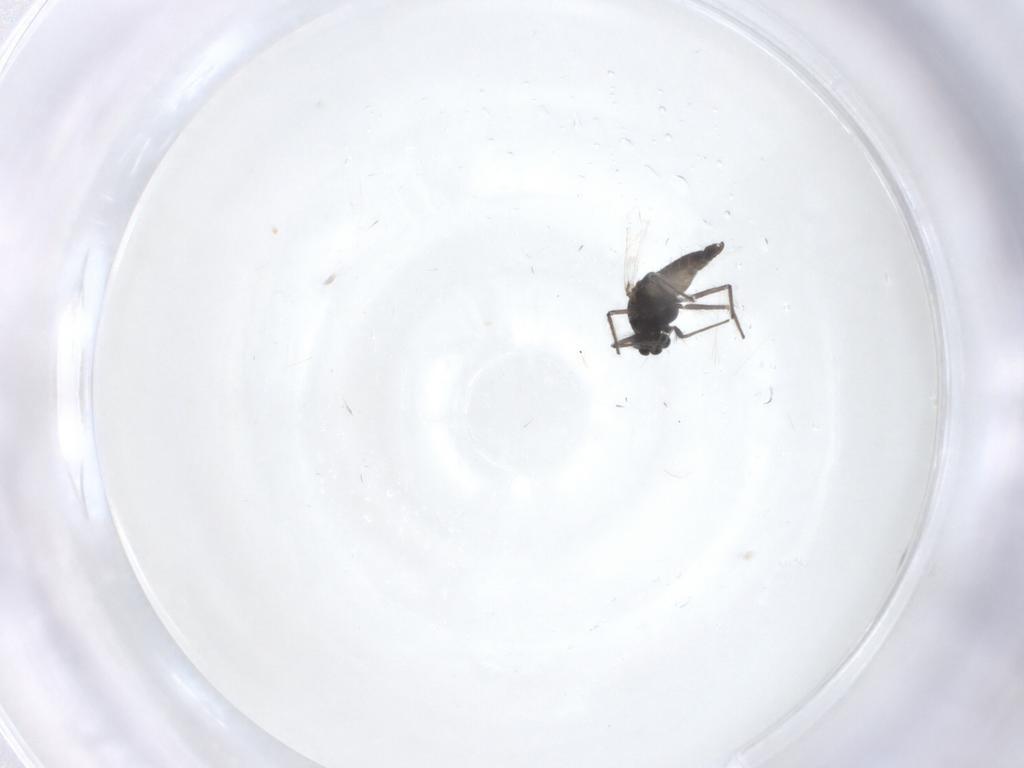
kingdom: Animalia
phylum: Arthropoda
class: Insecta
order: Diptera
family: Chironomidae
